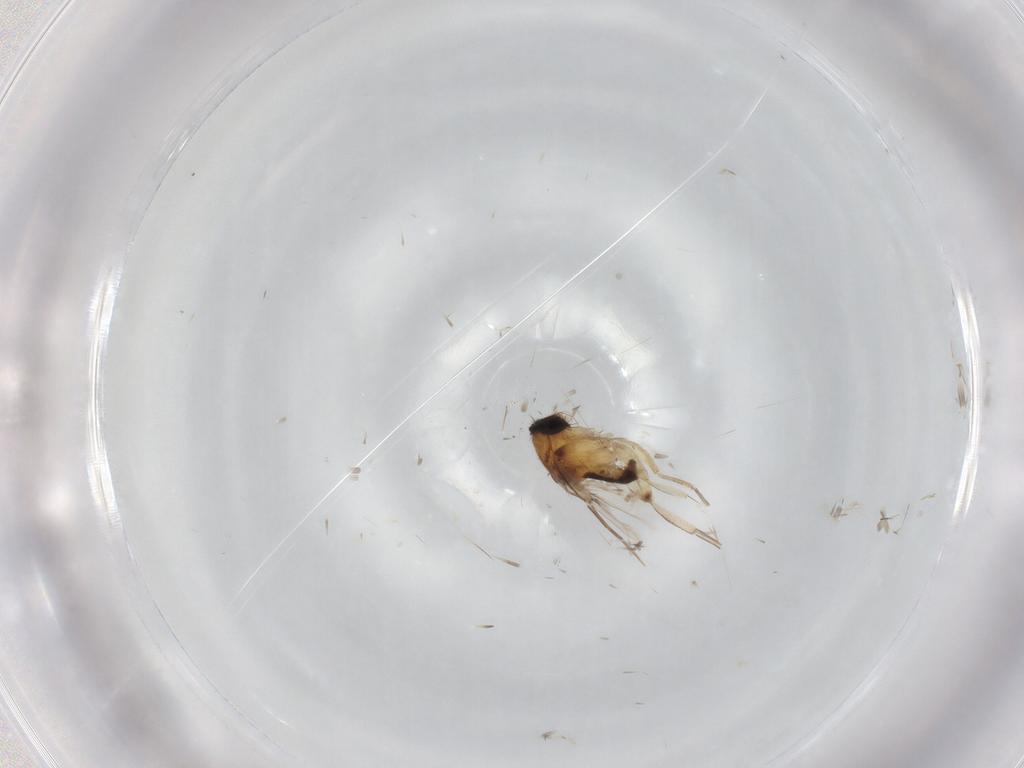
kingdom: Animalia
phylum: Arthropoda
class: Insecta
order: Diptera
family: Phoridae
